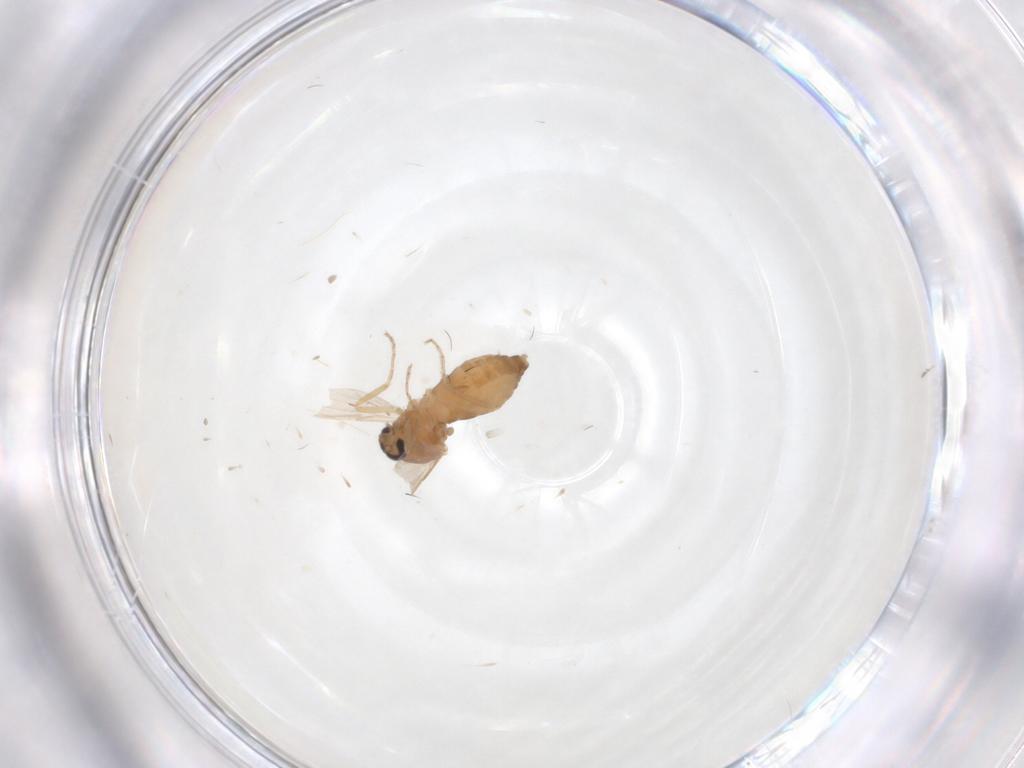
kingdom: Animalia
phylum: Arthropoda
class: Insecta
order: Diptera
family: Ceratopogonidae
